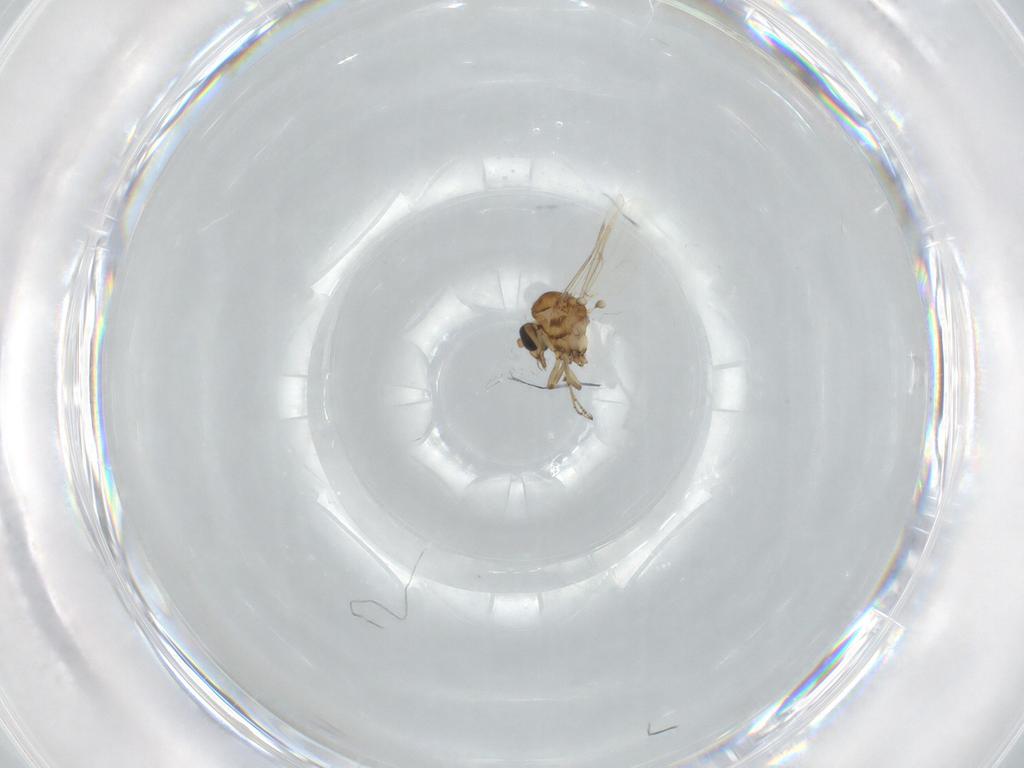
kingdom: Animalia
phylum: Arthropoda
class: Insecta
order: Diptera
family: Ceratopogonidae
